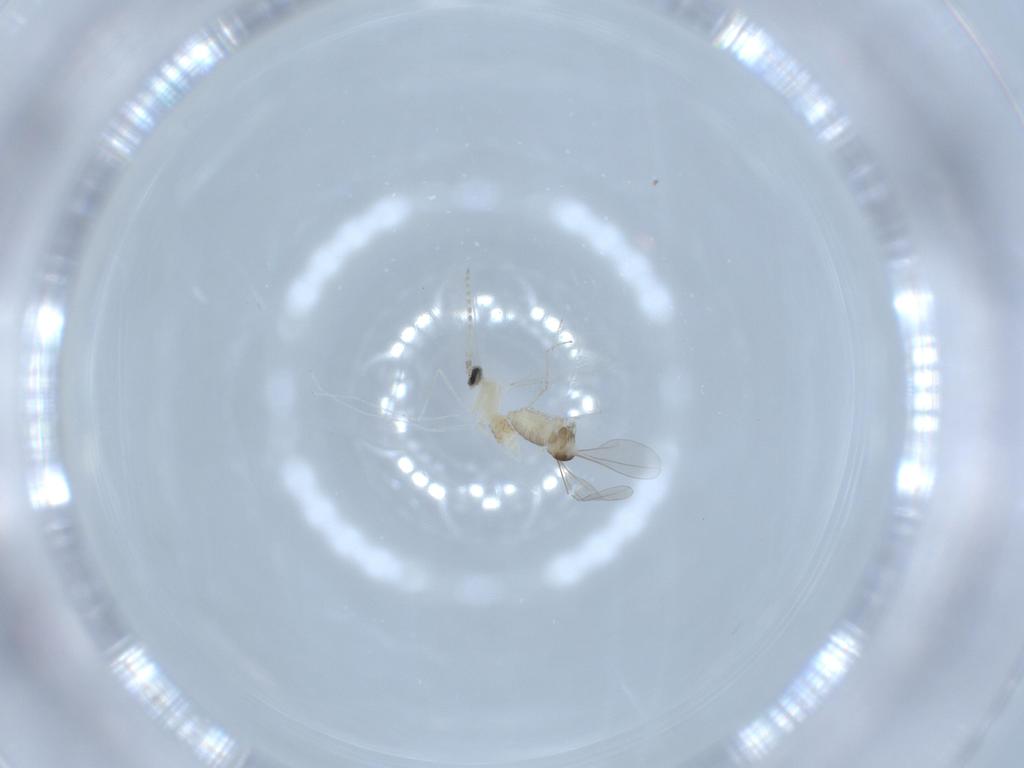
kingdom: Animalia
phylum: Arthropoda
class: Insecta
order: Diptera
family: Cecidomyiidae
